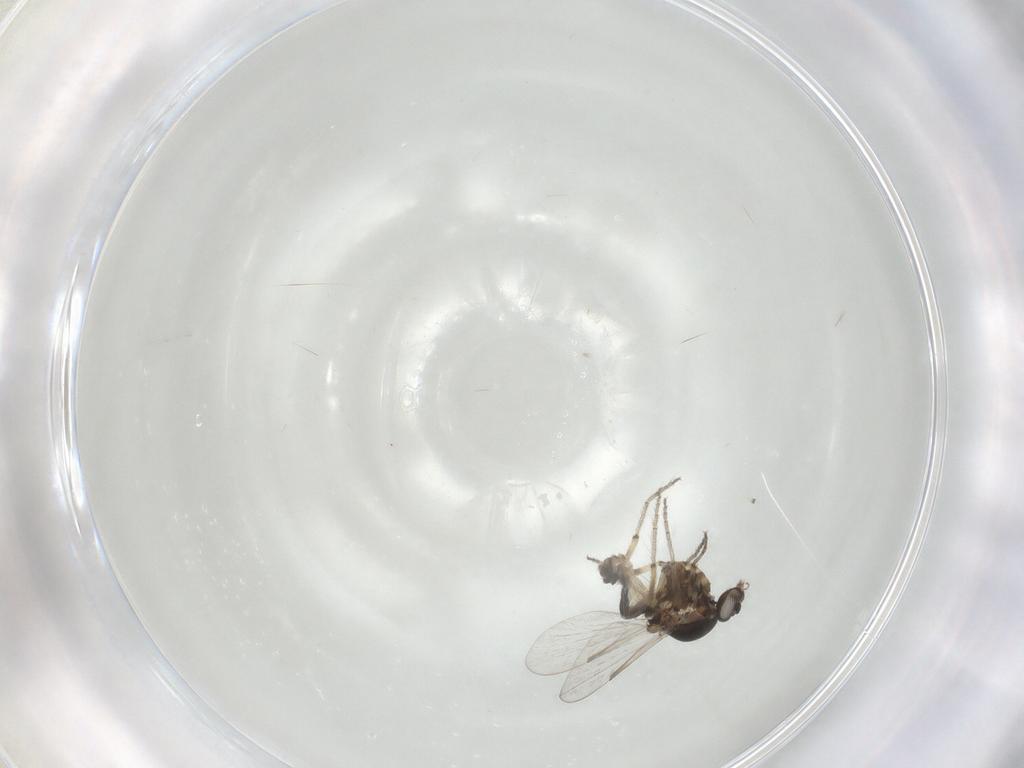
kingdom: Animalia
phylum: Arthropoda
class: Insecta
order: Diptera
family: Ceratopogonidae
